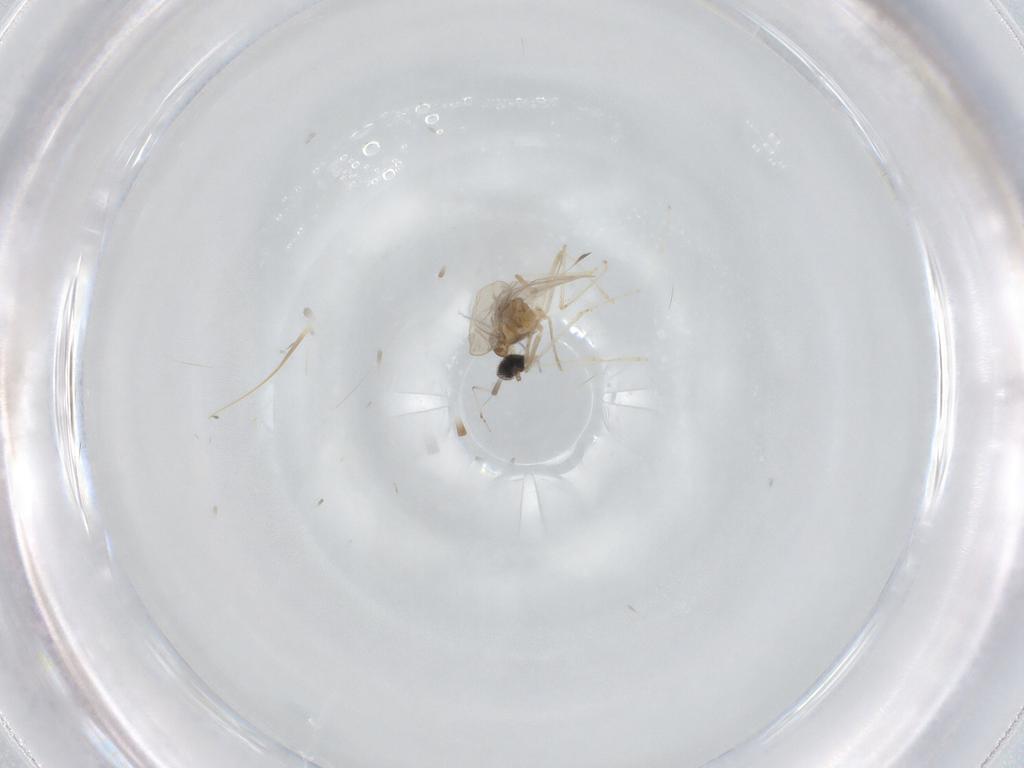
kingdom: Animalia
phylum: Arthropoda
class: Insecta
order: Diptera
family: Cecidomyiidae
